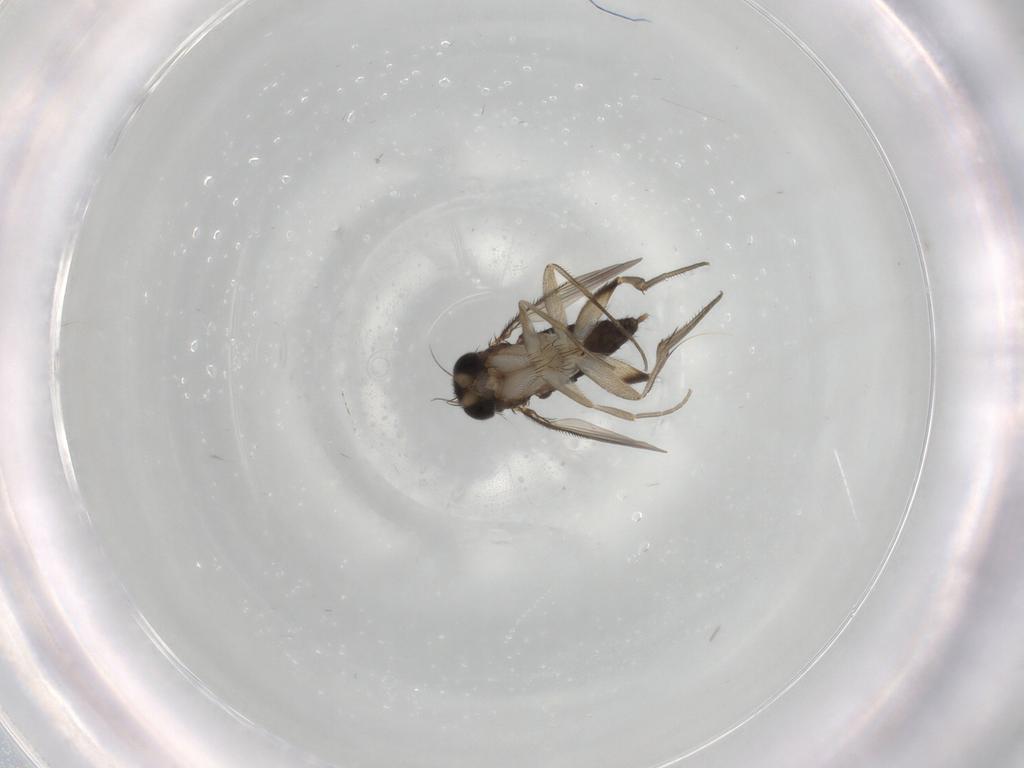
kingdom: Animalia
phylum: Arthropoda
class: Insecta
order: Diptera
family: Phoridae
